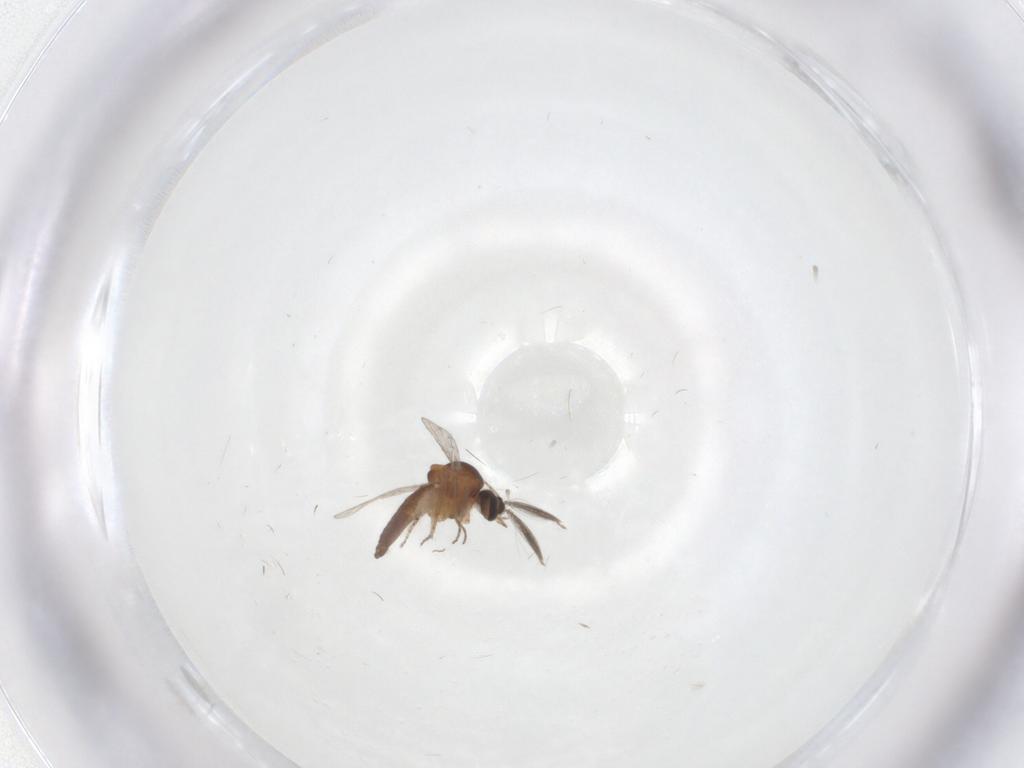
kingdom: Animalia
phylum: Arthropoda
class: Insecta
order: Diptera
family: Ceratopogonidae
